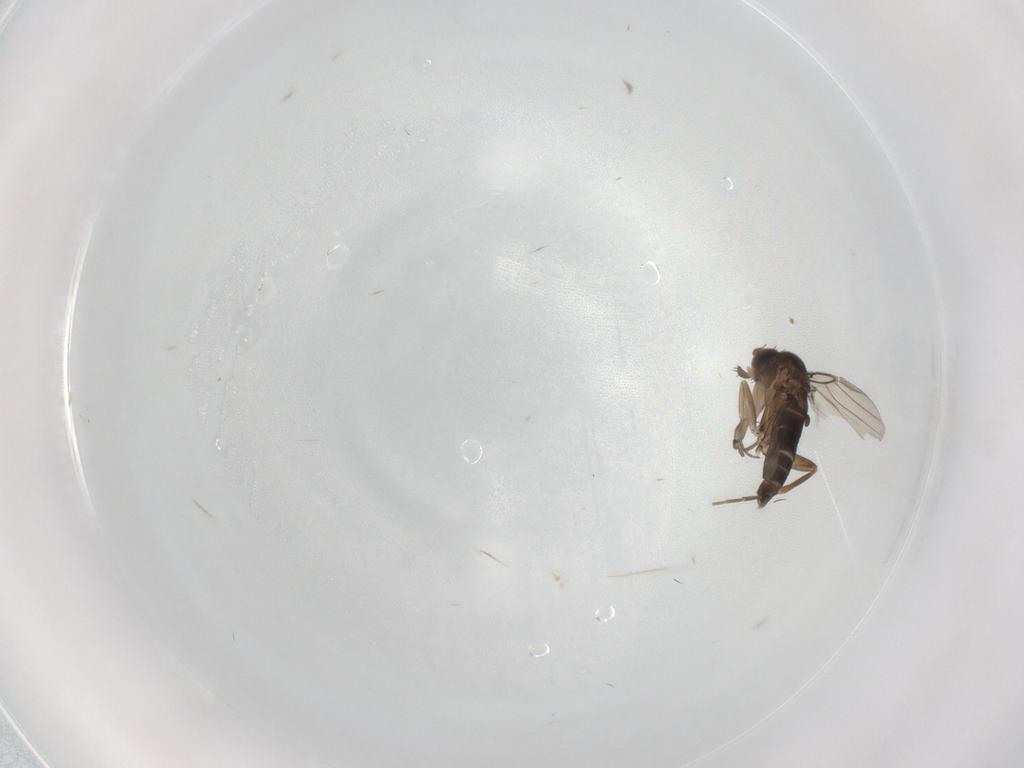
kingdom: Animalia
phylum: Arthropoda
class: Insecta
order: Diptera
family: Phoridae
